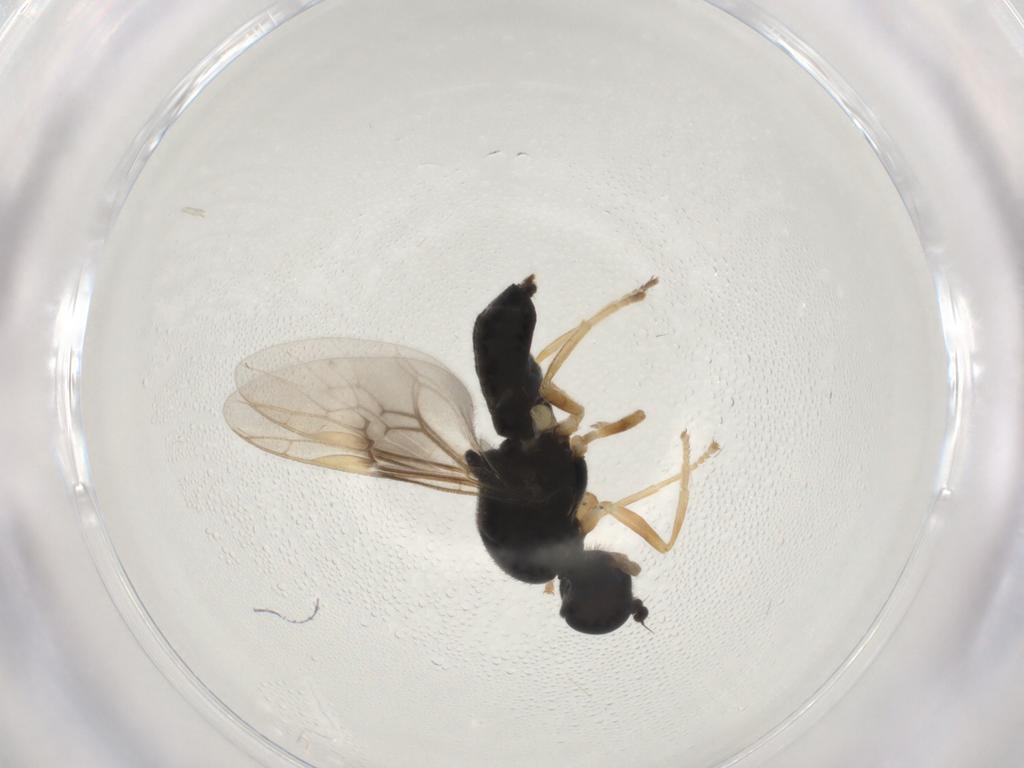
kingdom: Animalia
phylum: Arthropoda
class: Insecta
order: Diptera
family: Stratiomyidae
